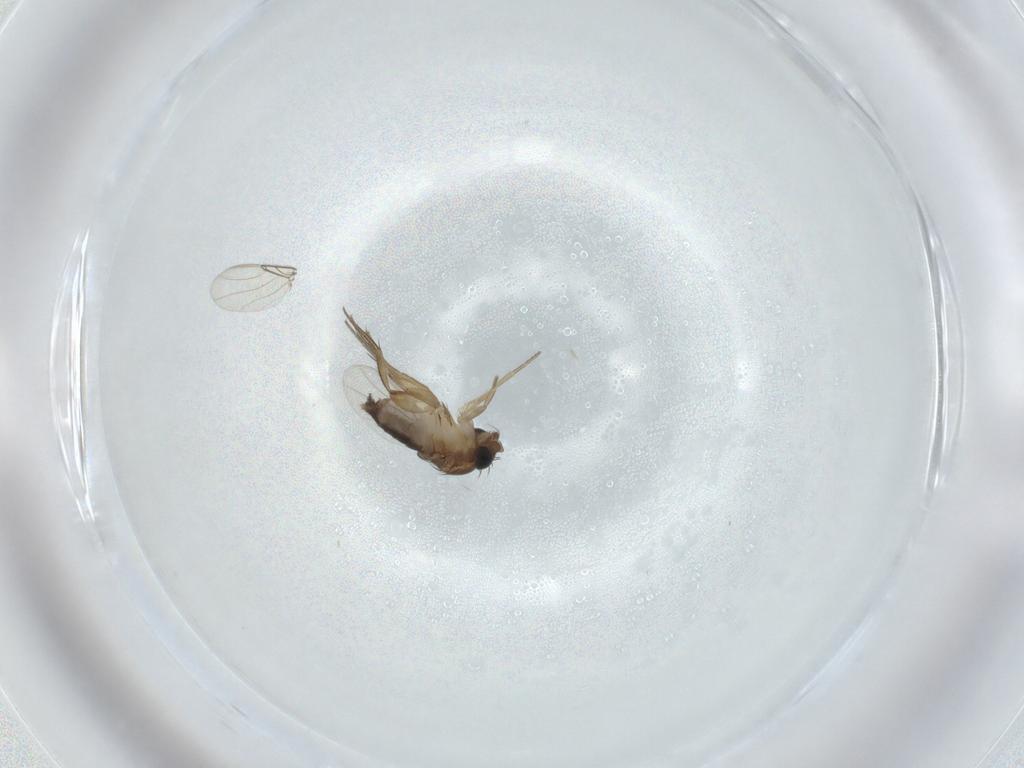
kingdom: Animalia
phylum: Arthropoda
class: Insecta
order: Diptera
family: Phoridae
